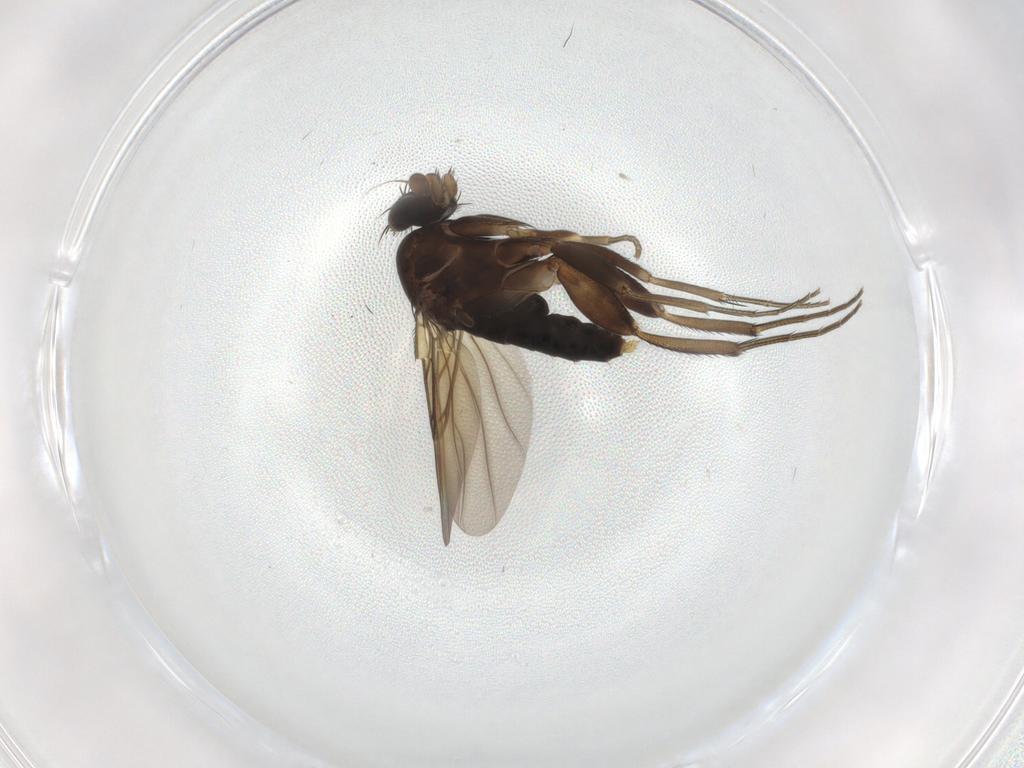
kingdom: Animalia
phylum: Arthropoda
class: Insecta
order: Diptera
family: Phoridae
